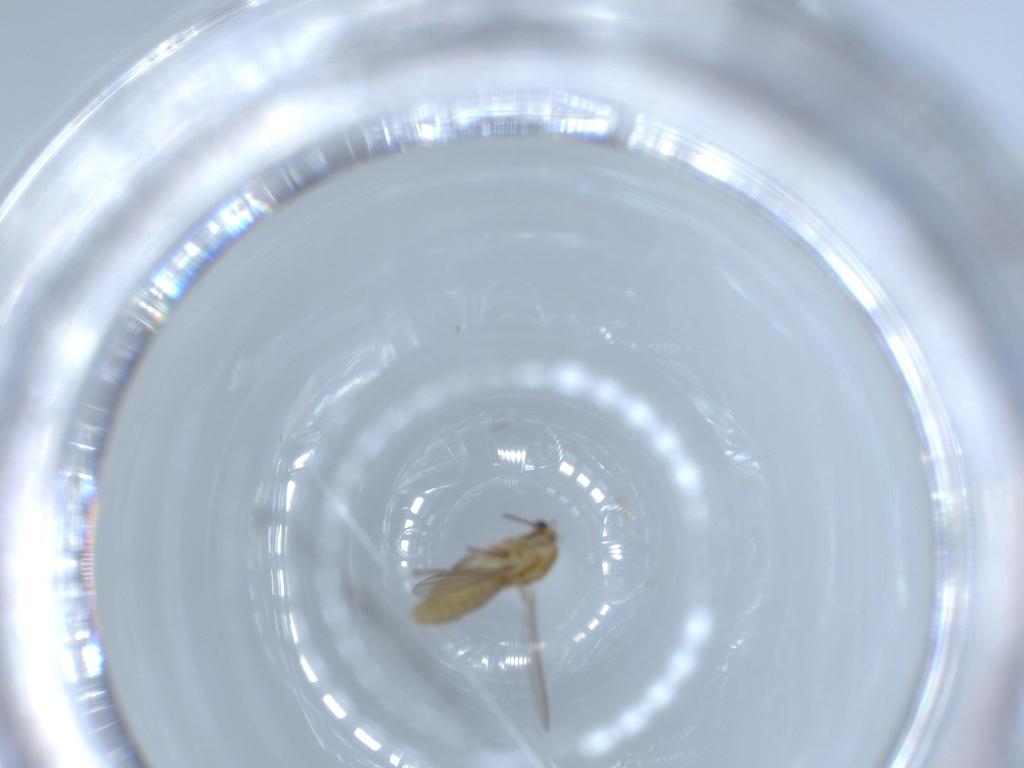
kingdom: Animalia
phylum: Arthropoda
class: Insecta
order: Diptera
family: Chironomidae
